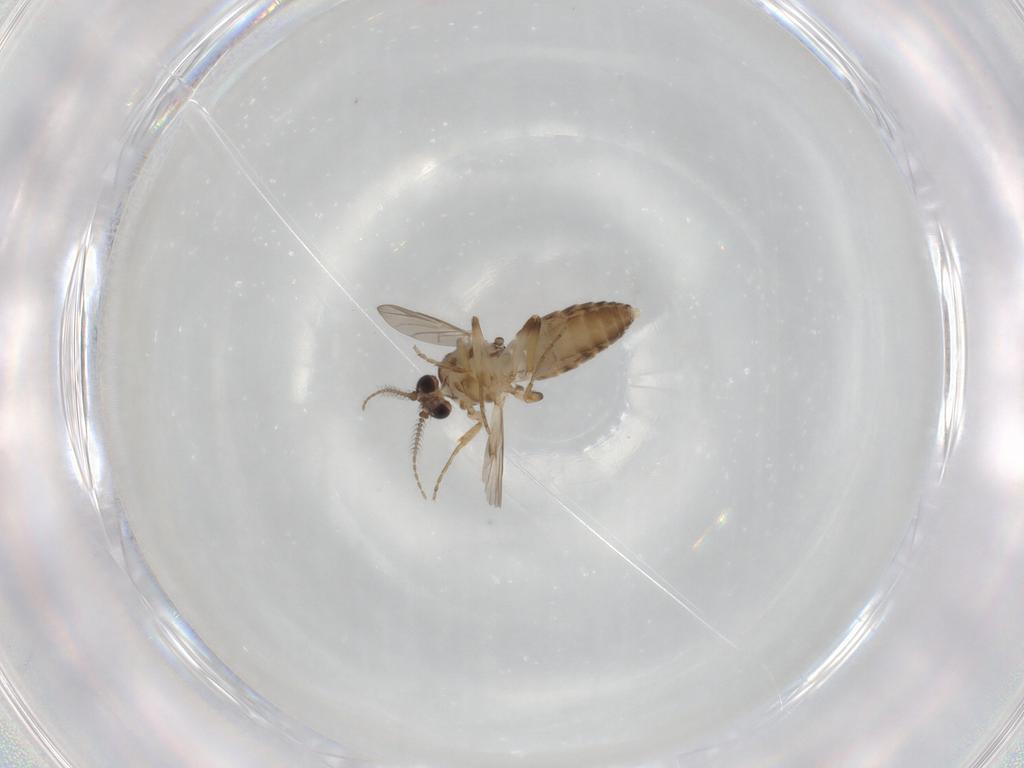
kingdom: Animalia
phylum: Arthropoda
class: Insecta
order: Diptera
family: Ceratopogonidae
